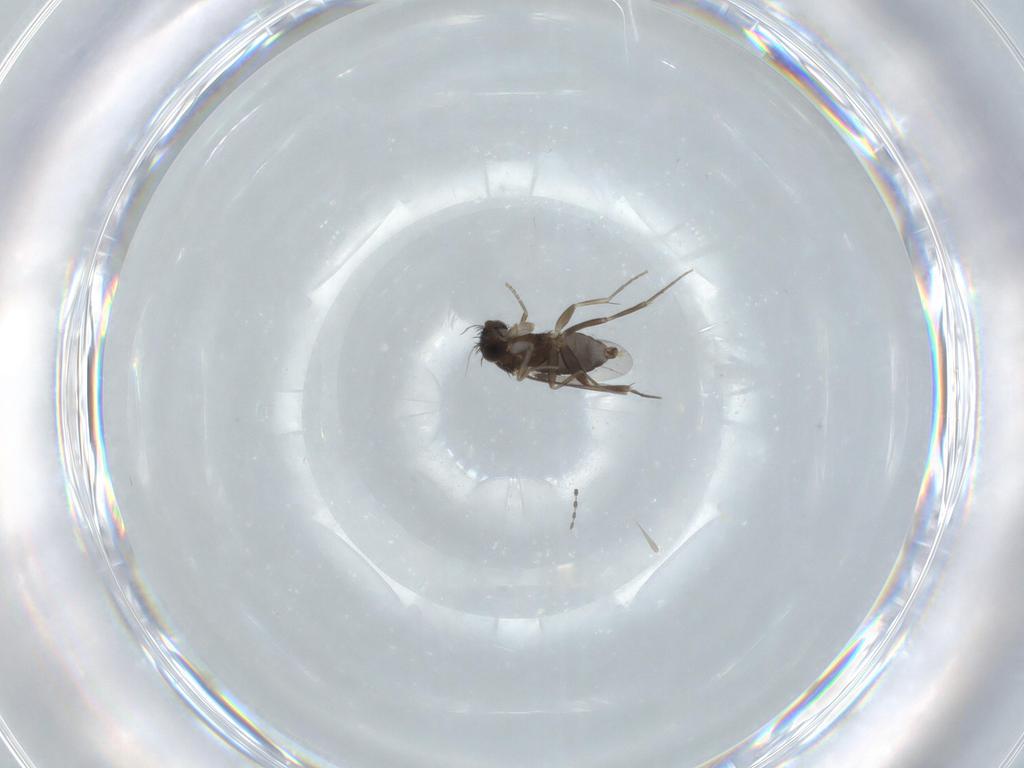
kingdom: Animalia
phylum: Arthropoda
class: Insecta
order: Diptera
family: Phoridae
